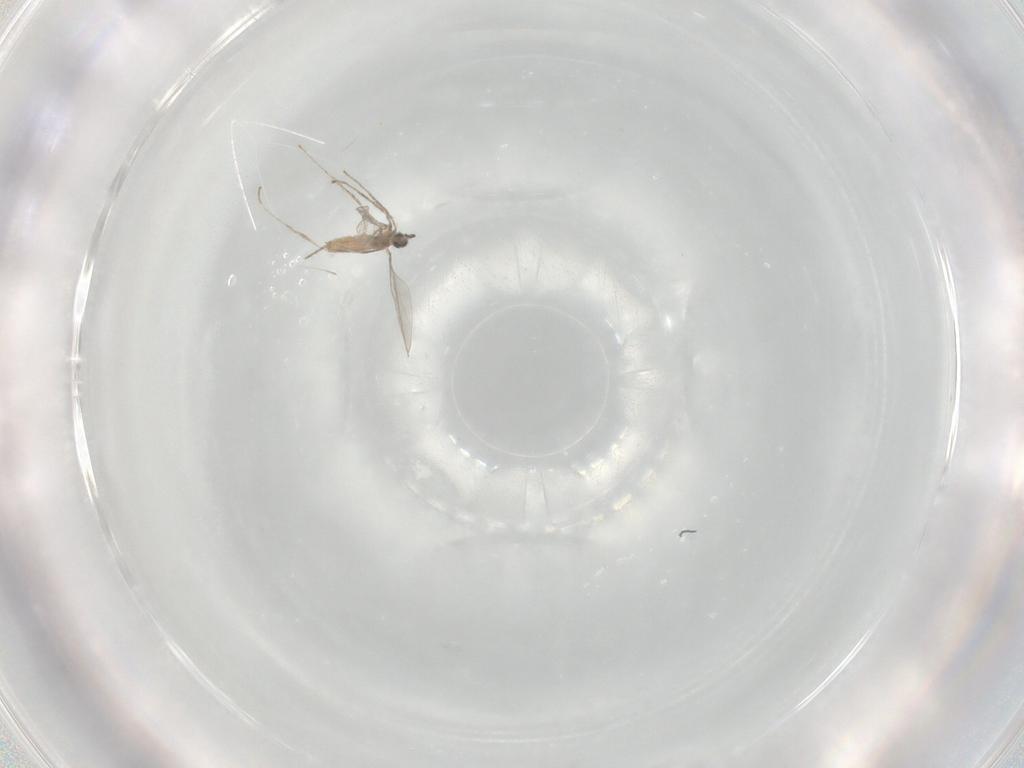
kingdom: Animalia
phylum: Arthropoda
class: Insecta
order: Diptera
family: Cecidomyiidae
